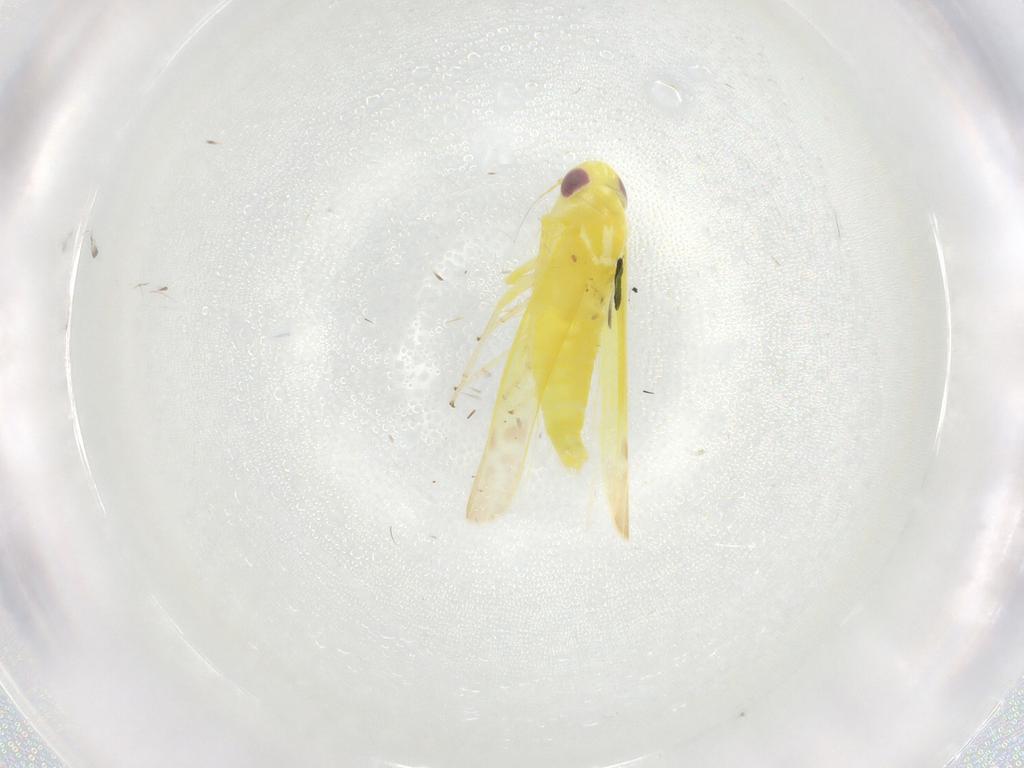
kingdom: Animalia
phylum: Arthropoda
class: Insecta
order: Hemiptera
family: Cicadellidae
